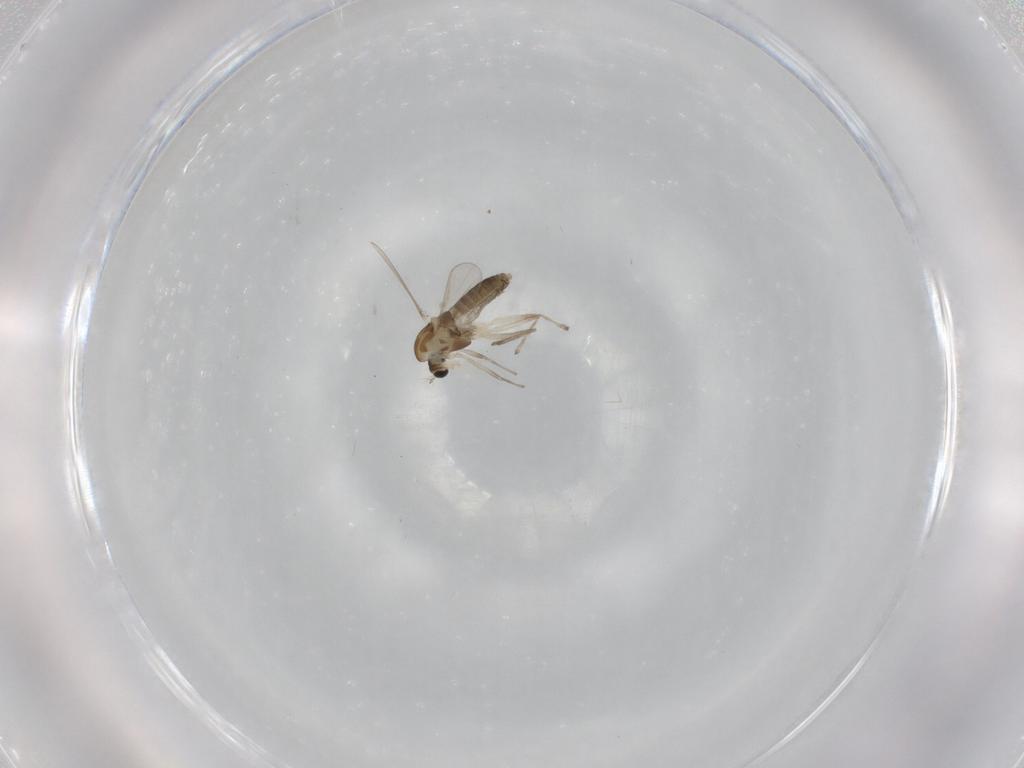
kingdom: Animalia
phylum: Arthropoda
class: Insecta
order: Diptera
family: Chironomidae
